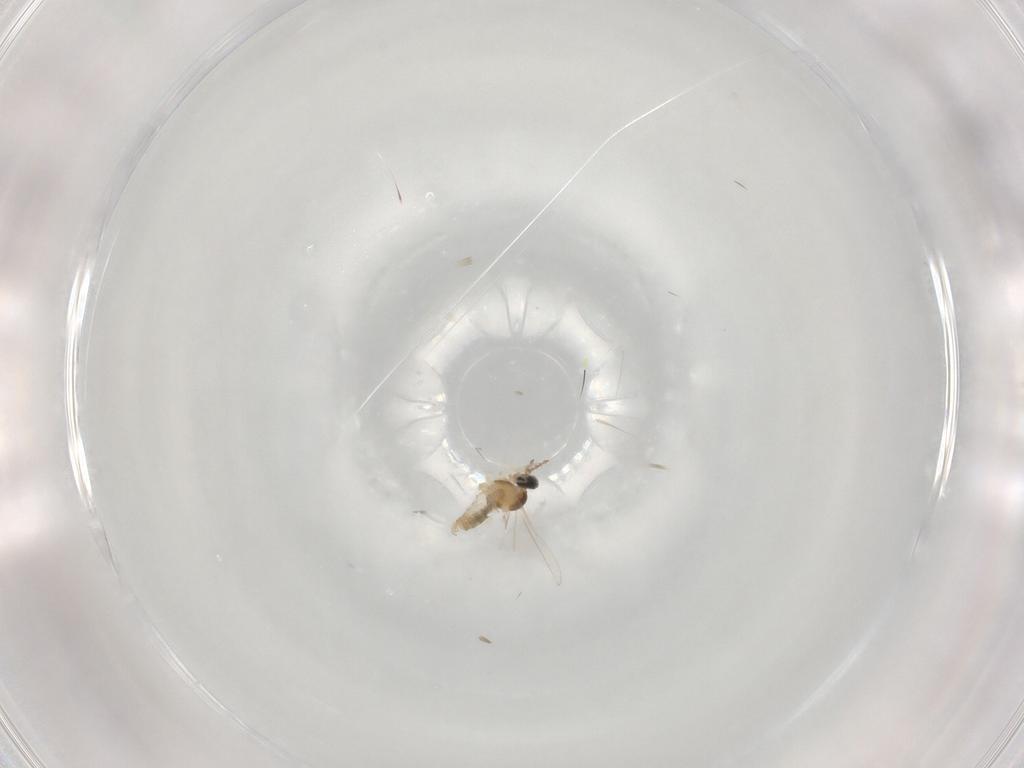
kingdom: Animalia
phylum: Arthropoda
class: Insecta
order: Diptera
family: Cecidomyiidae
